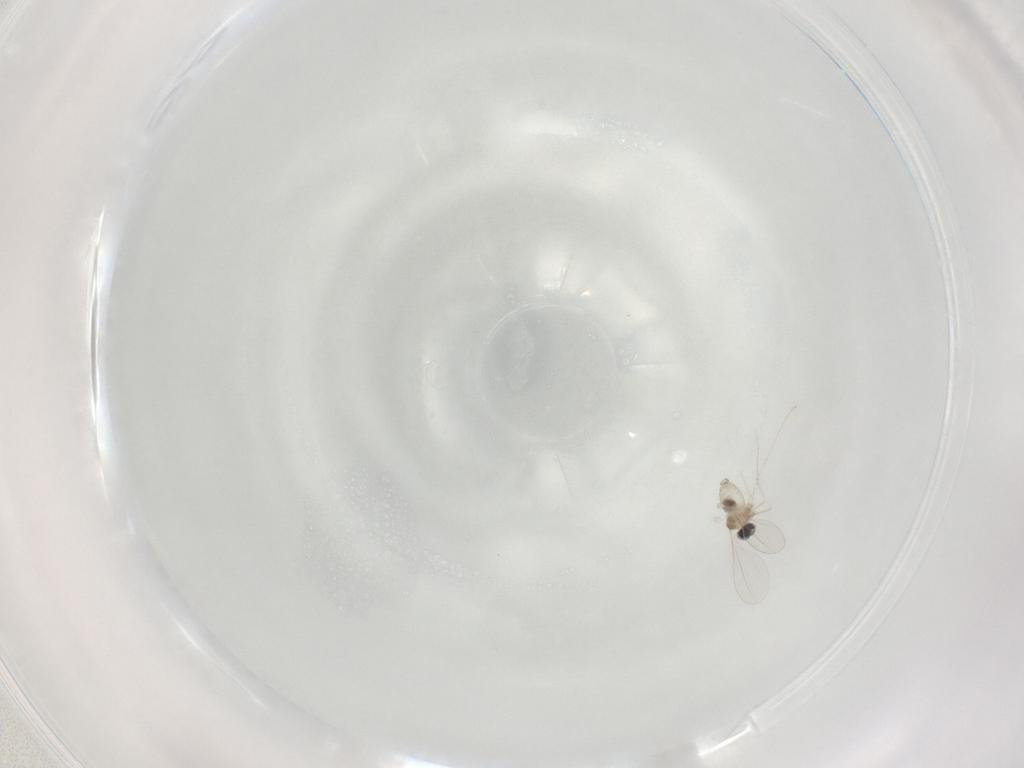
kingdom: Animalia
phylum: Arthropoda
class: Insecta
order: Diptera
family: Cecidomyiidae
